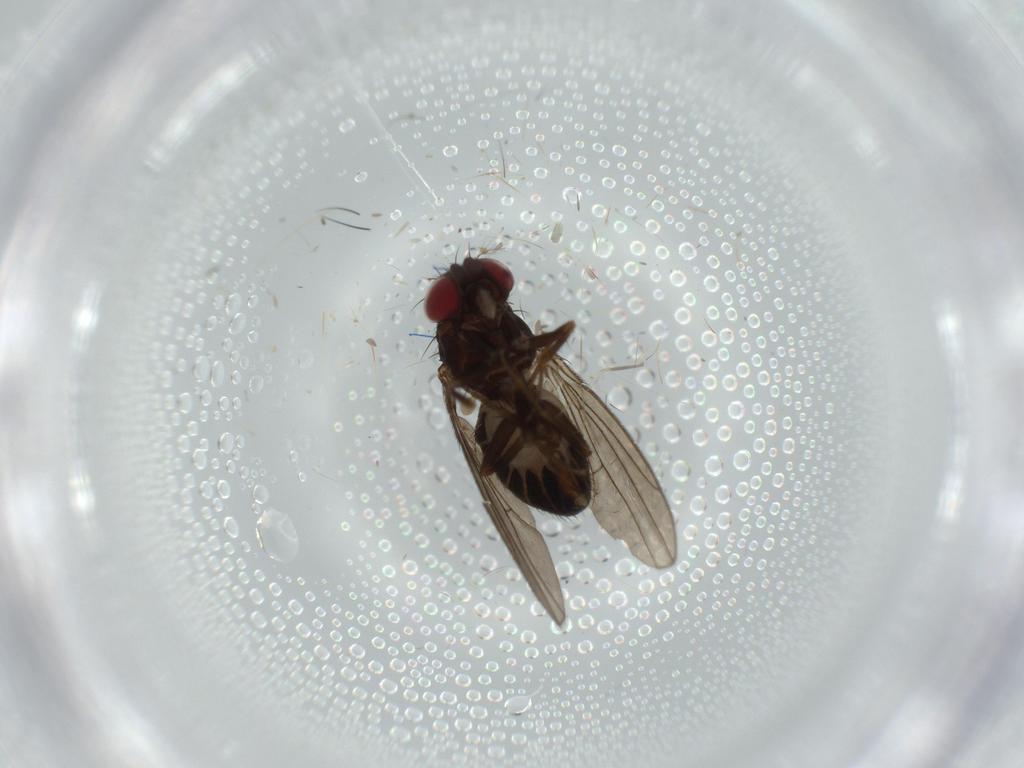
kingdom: Animalia
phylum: Arthropoda
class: Insecta
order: Diptera
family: Drosophilidae
